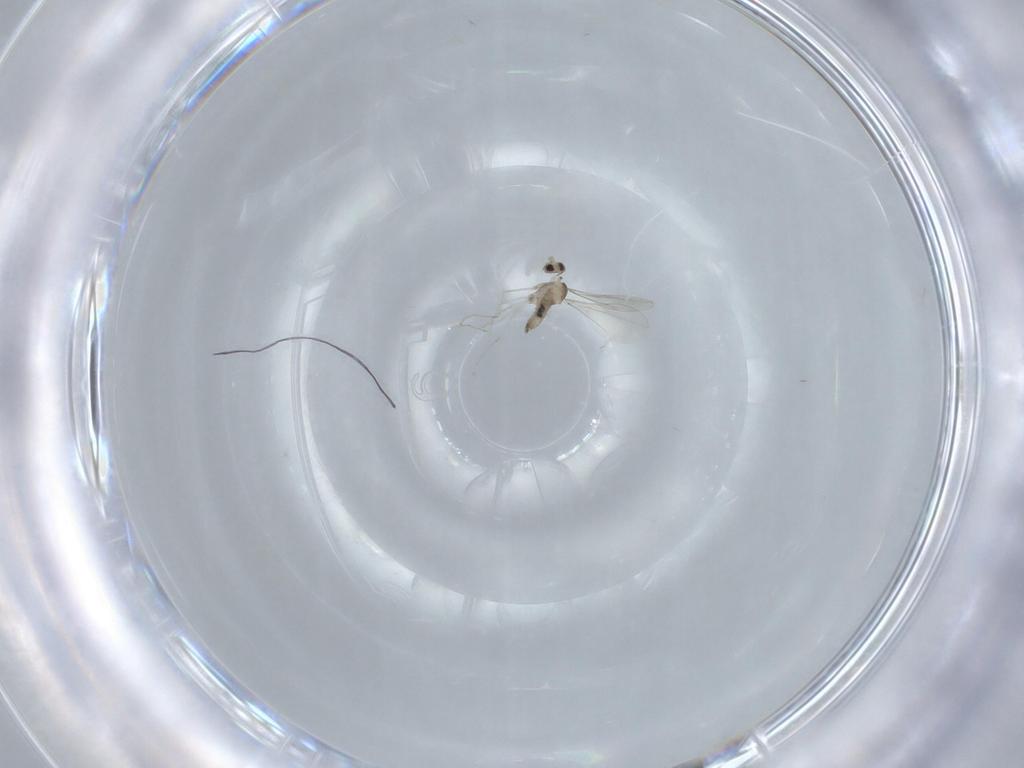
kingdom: Animalia
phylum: Arthropoda
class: Insecta
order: Diptera
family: Cecidomyiidae
